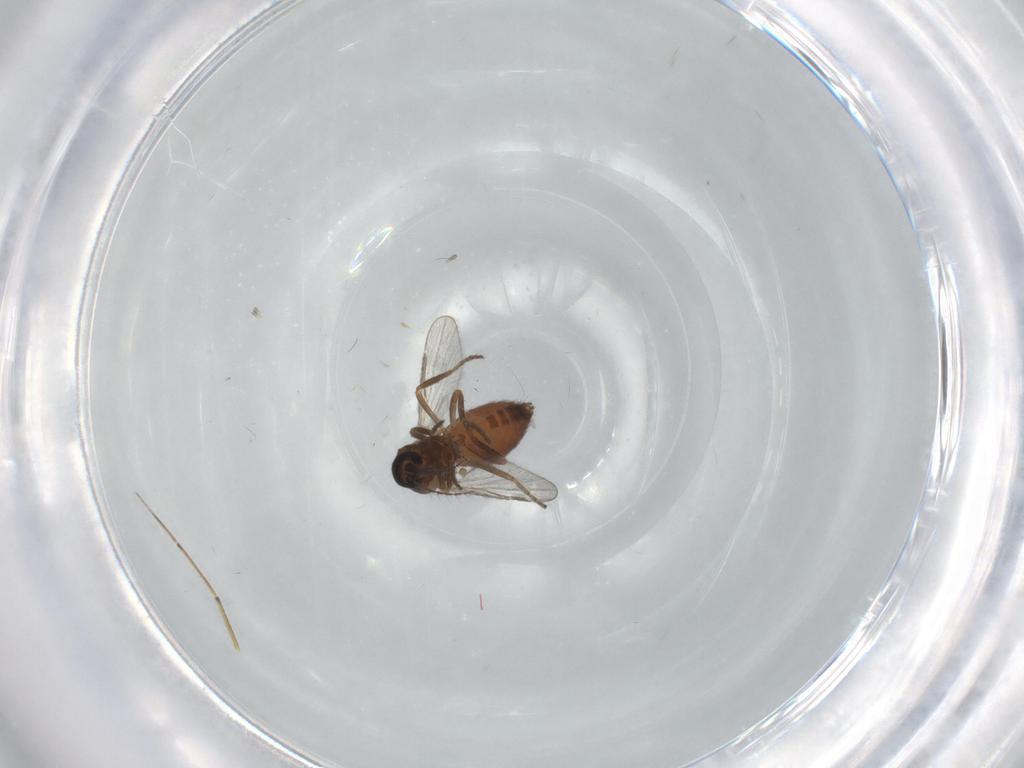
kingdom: Animalia
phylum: Arthropoda
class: Insecta
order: Diptera
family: Ceratopogonidae
